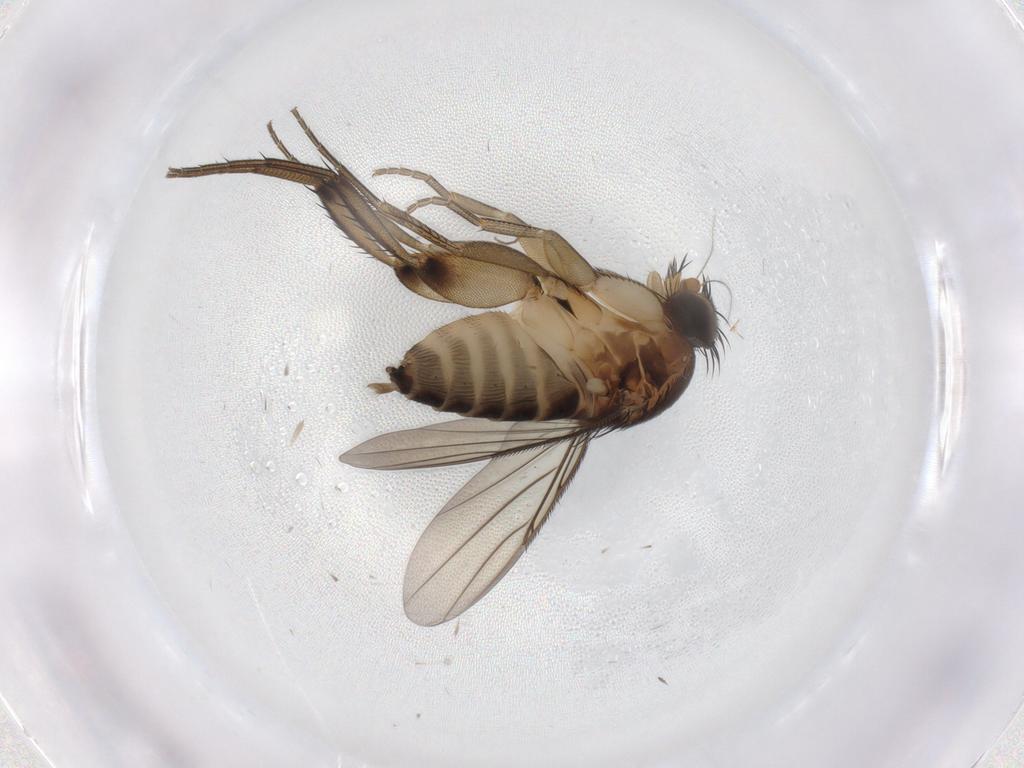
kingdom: Animalia
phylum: Arthropoda
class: Insecta
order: Diptera
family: Chironomidae
